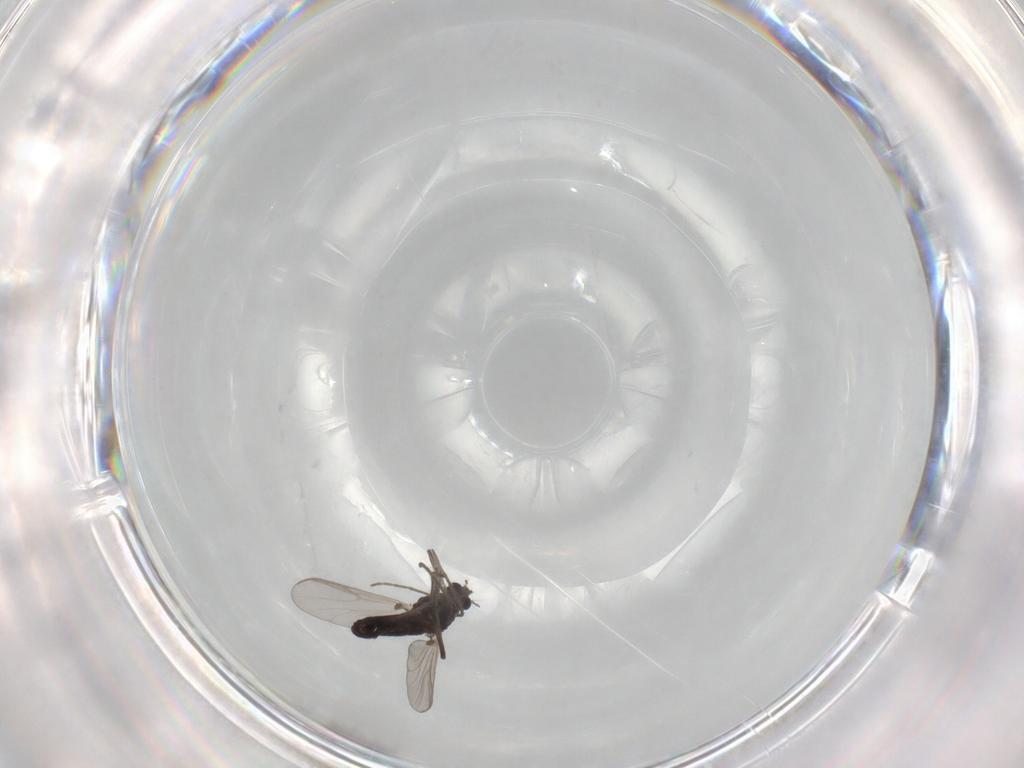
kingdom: Animalia
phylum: Arthropoda
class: Insecta
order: Diptera
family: Chironomidae
